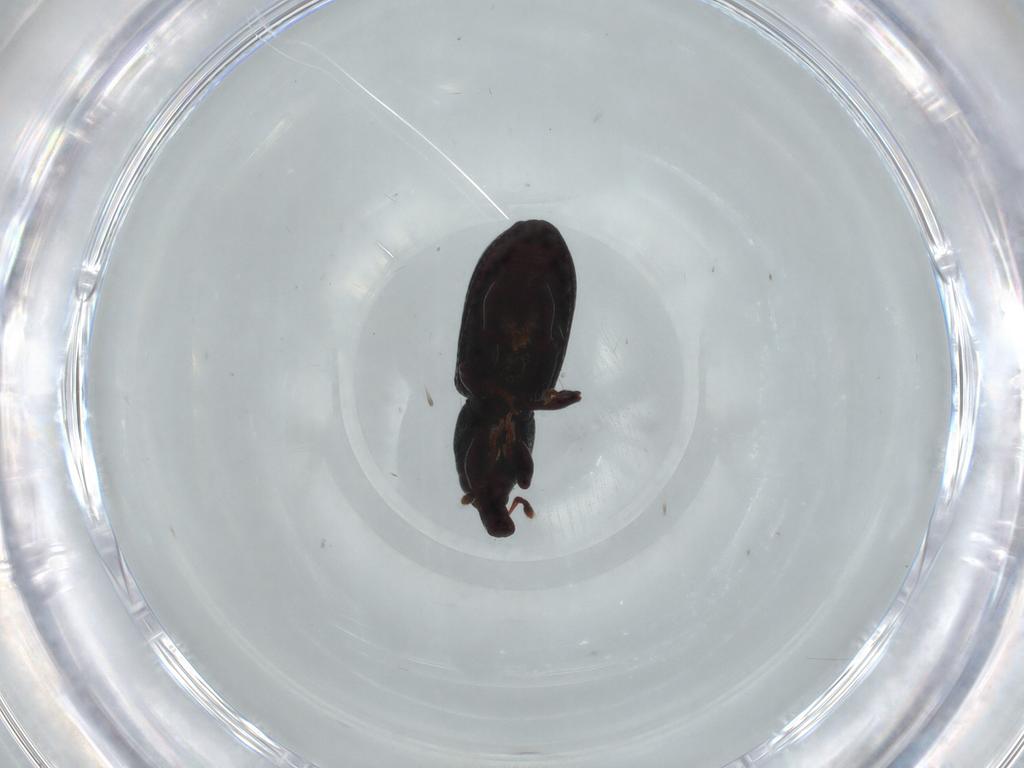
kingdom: Animalia
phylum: Arthropoda
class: Insecta
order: Coleoptera
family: Curculionidae
